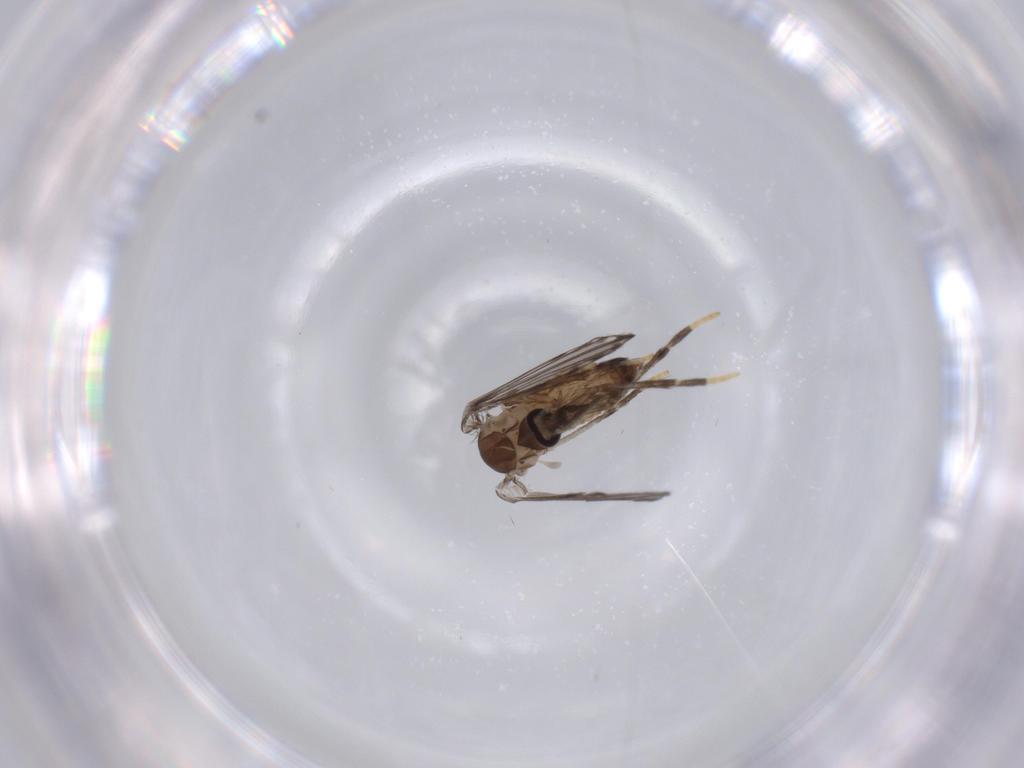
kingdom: Animalia
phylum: Arthropoda
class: Insecta
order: Diptera
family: Psychodidae
